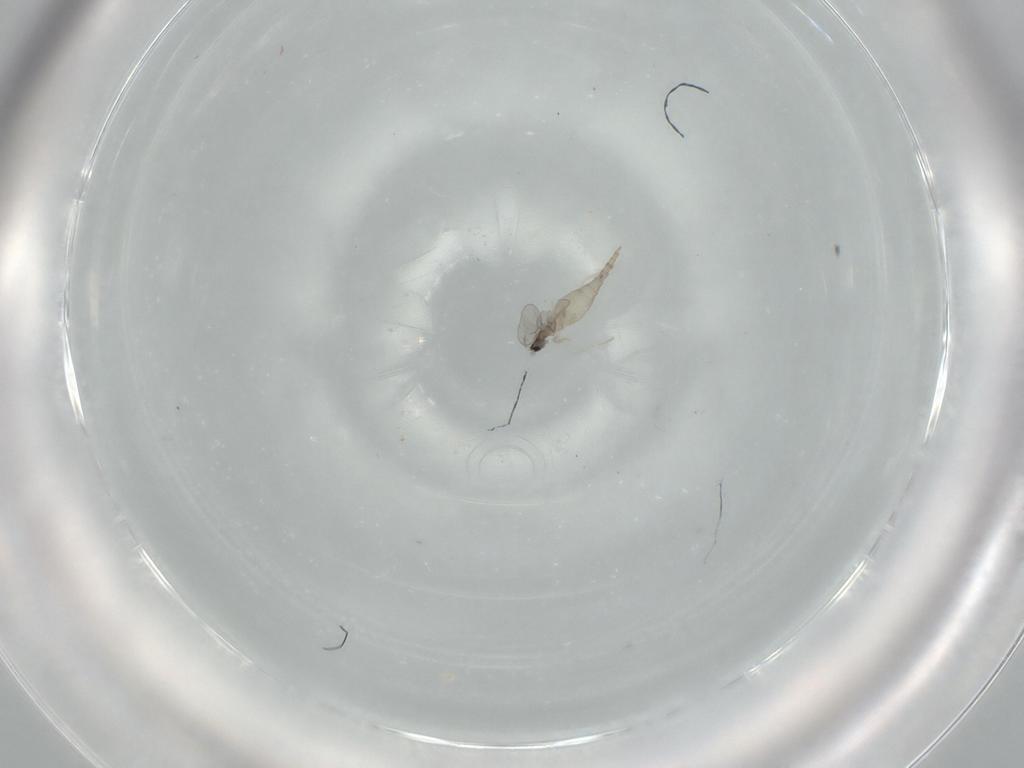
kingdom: Animalia
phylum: Arthropoda
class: Insecta
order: Diptera
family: Cecidomyiidae
